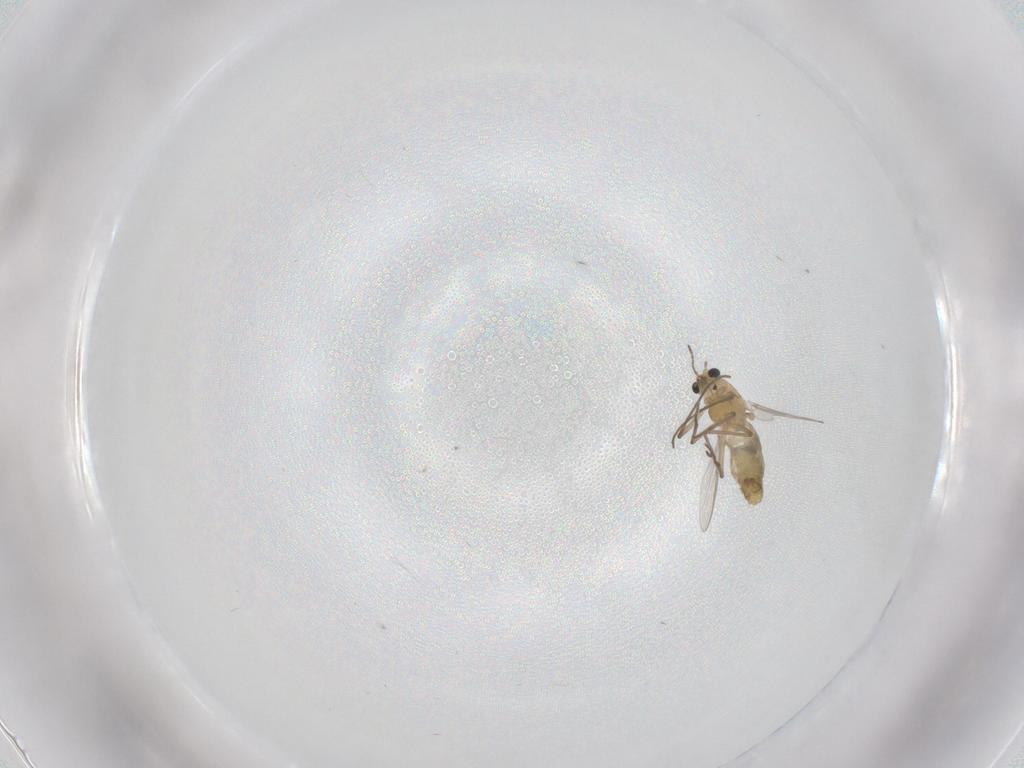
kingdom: Animalia
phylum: Arthropoda
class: Insecta
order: Diptera
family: Chironomidae
